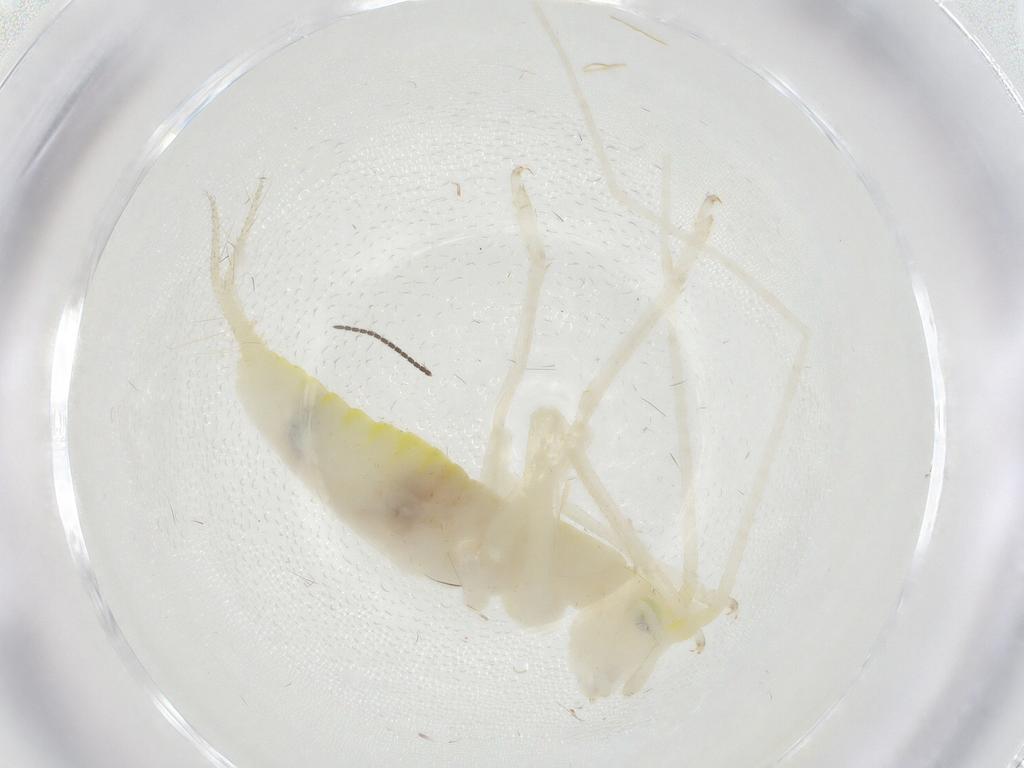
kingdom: Animalia
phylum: Arthropoda
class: Insecta
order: Orthoptera
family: Trigonidiidae
